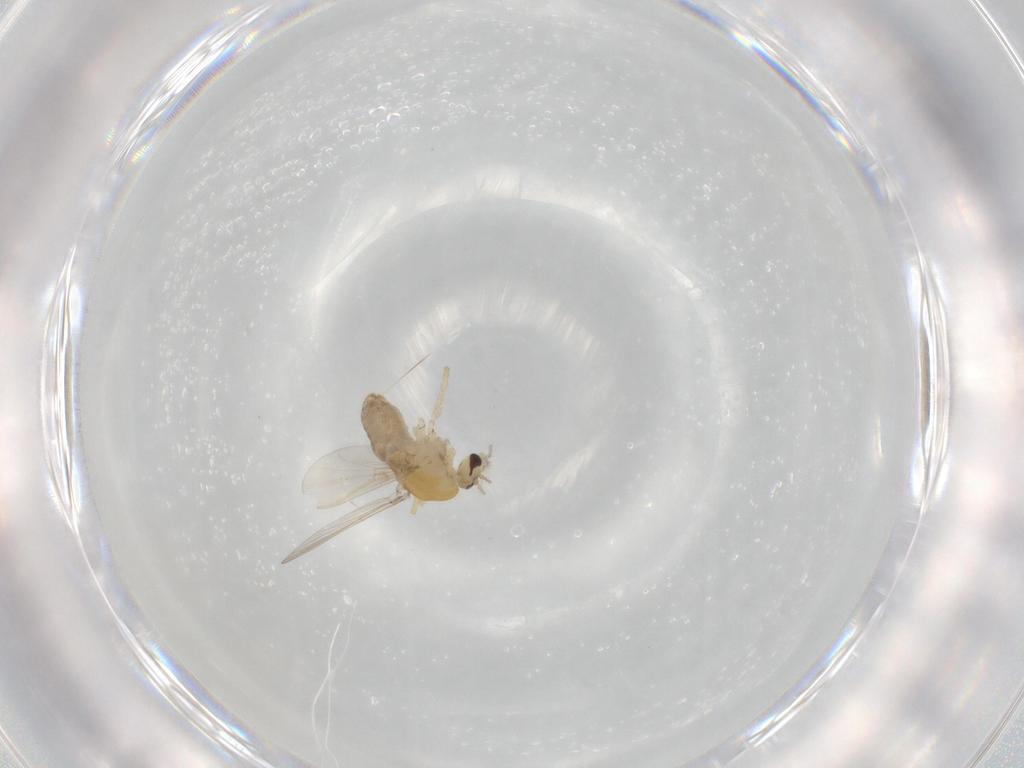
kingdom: Animalia
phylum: Arthropoda
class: Insecta
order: Diptera
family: Chironomidae
